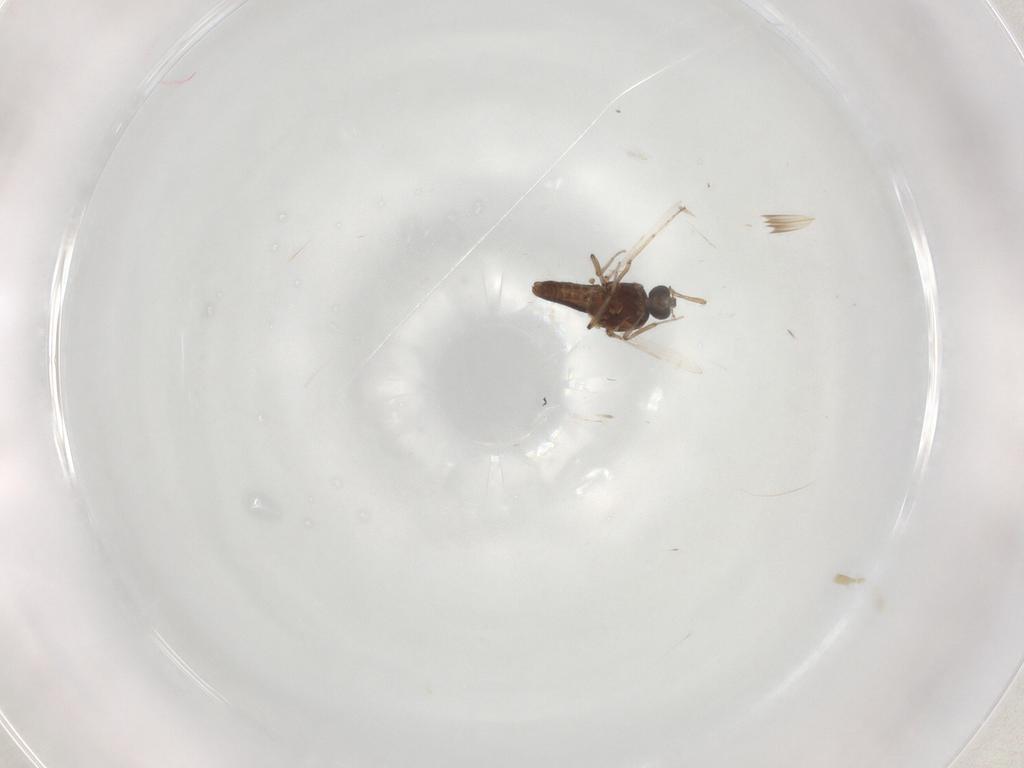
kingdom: Animalia
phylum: Arthropoda
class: Insecta
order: Diptera
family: Ceratopogonidae
